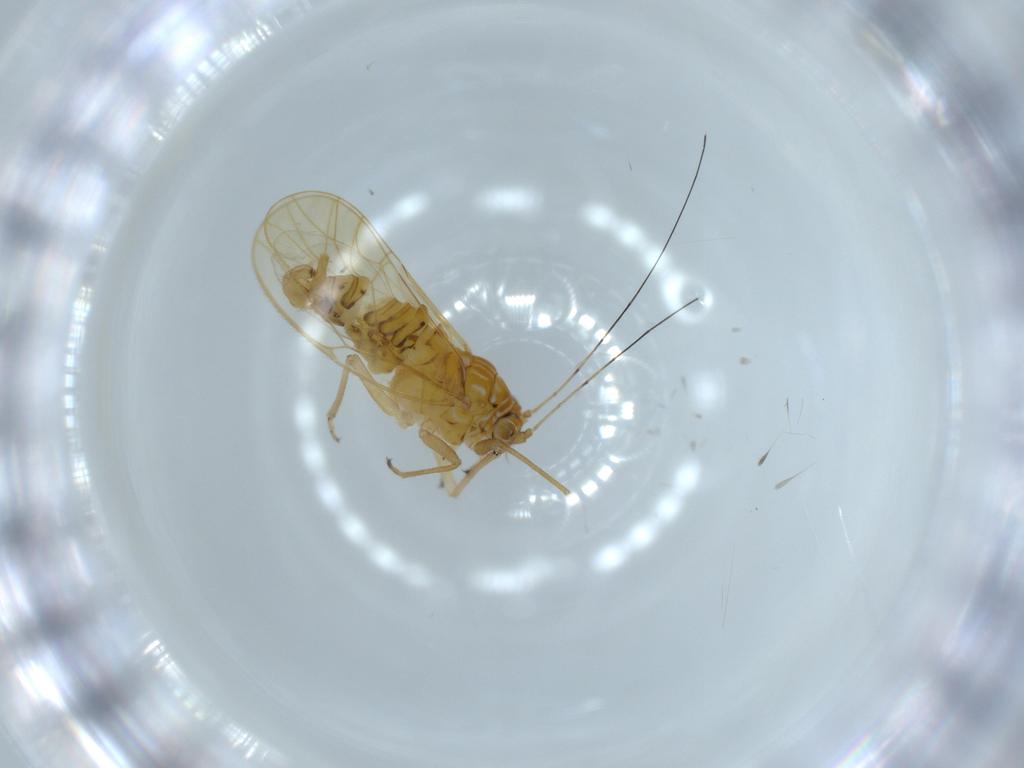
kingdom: Animalia
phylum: Arthropoda
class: Insecta
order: Hemiptera
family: Psyllidae
